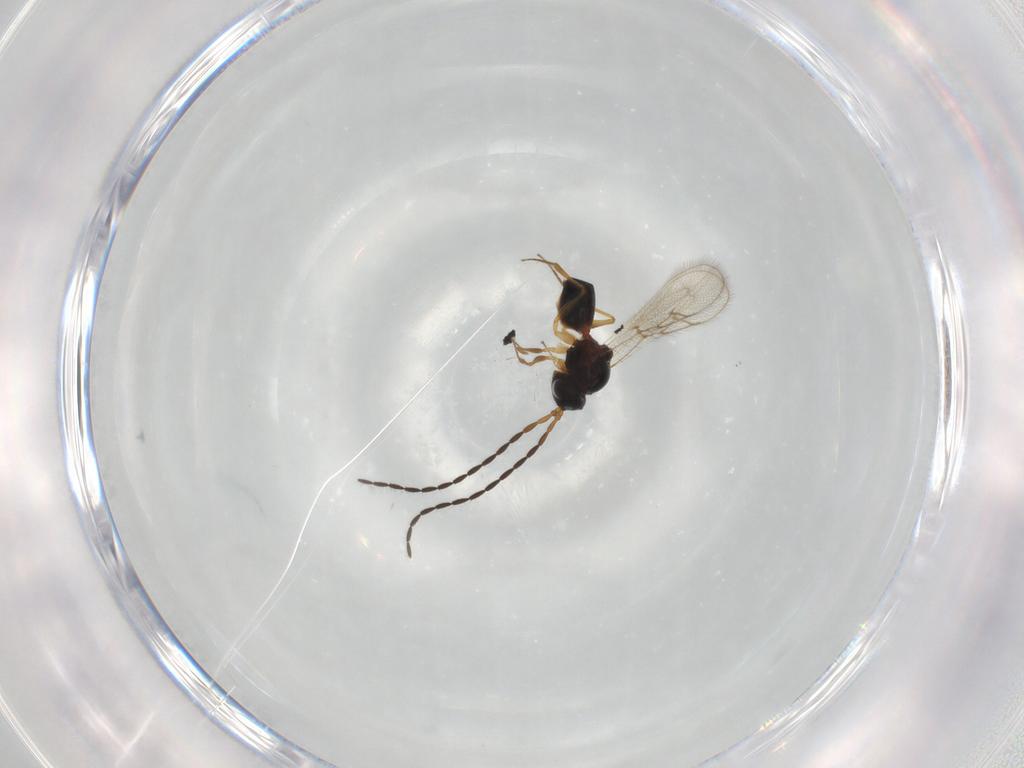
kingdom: Animalia
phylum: Arthropoda
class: Insecta
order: Hymenoptera
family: Figitidae
